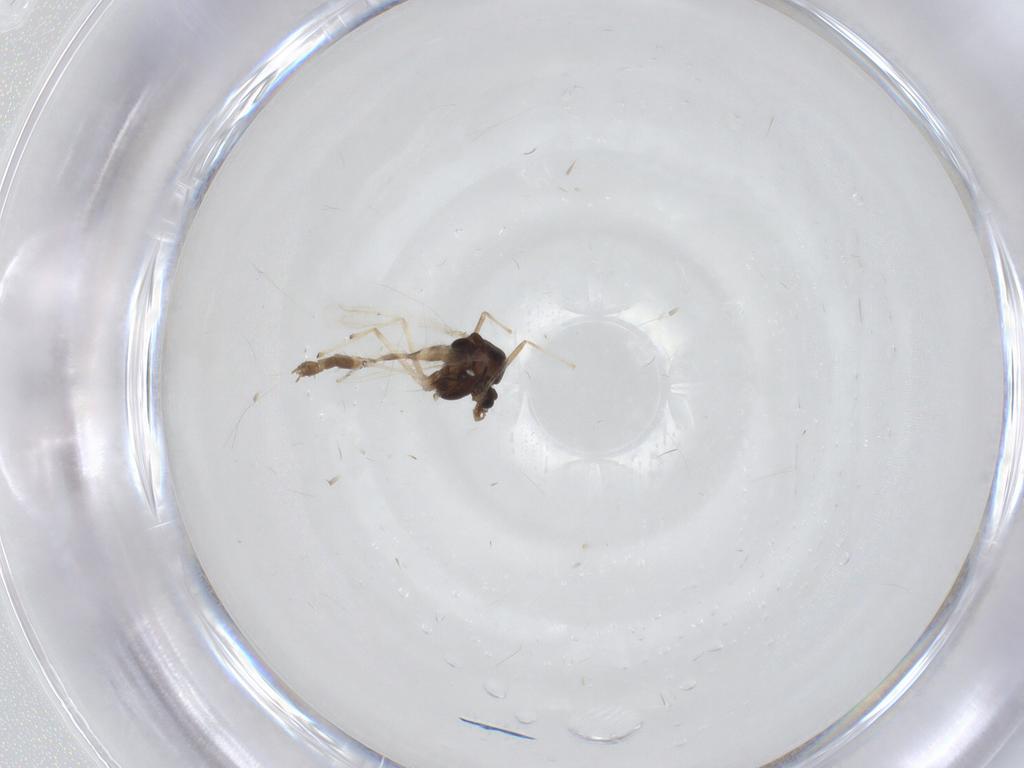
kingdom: Animalia
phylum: Arthropoda
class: Insecta
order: Diptera
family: Chironomidae
